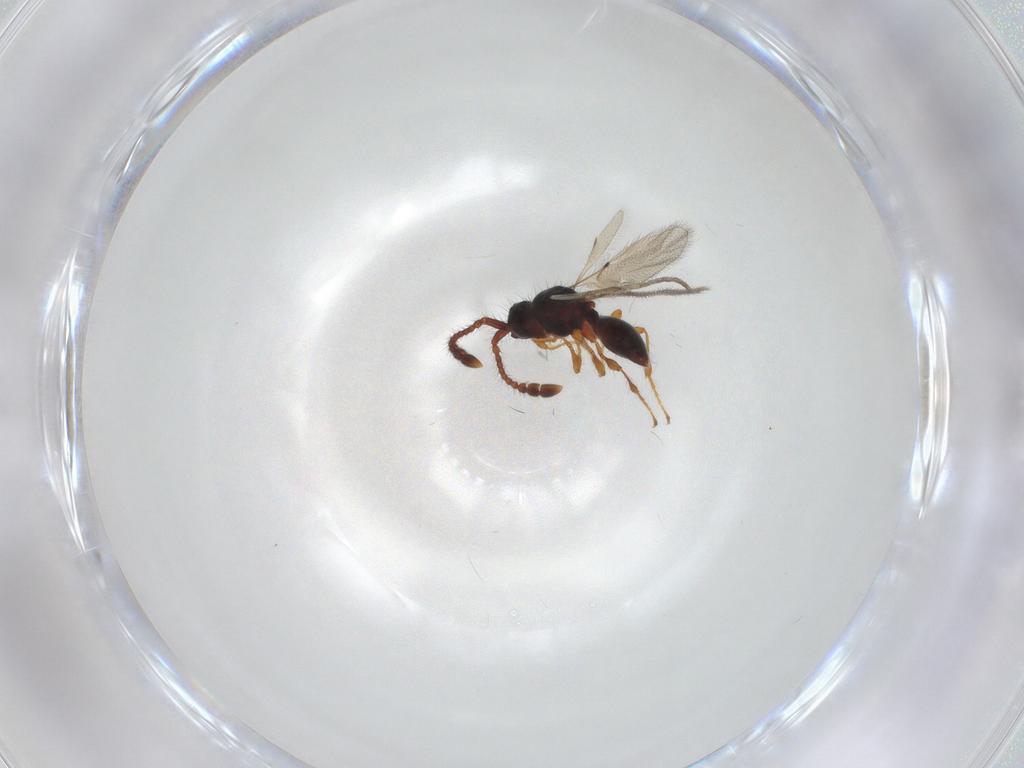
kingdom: Animalia
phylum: Arthropoda
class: Insecta
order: Hymenoptera
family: Diapriidae
